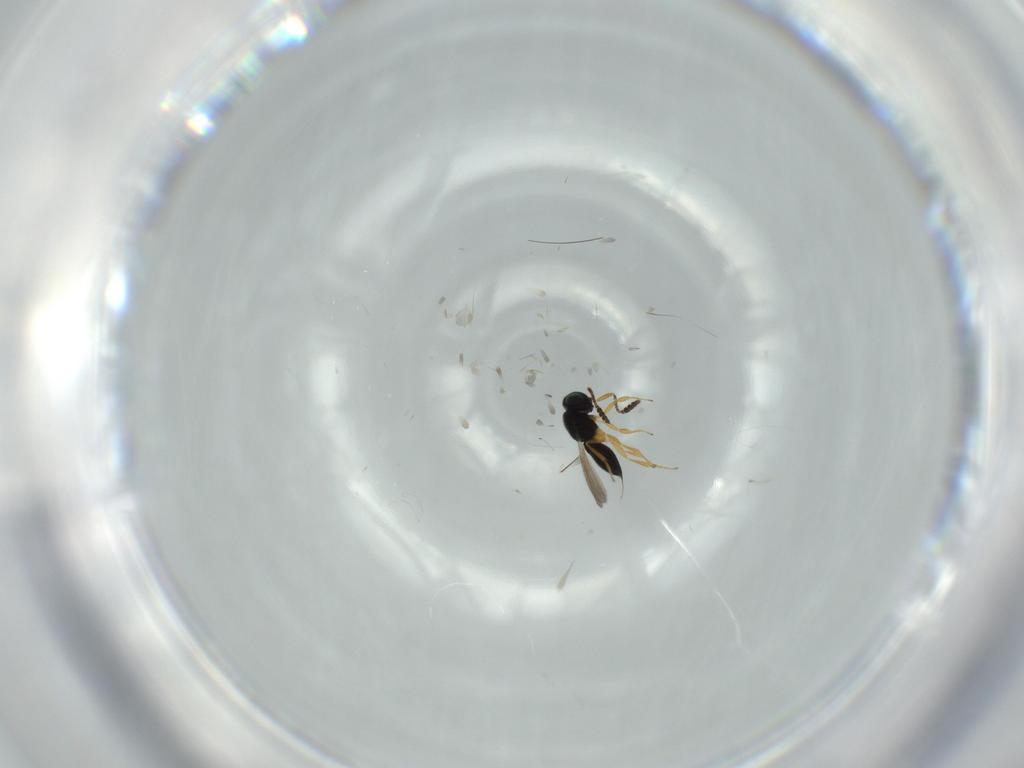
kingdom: Animalia
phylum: Arthropoda
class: Insecta
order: Hymenoptera
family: Scelionidae
